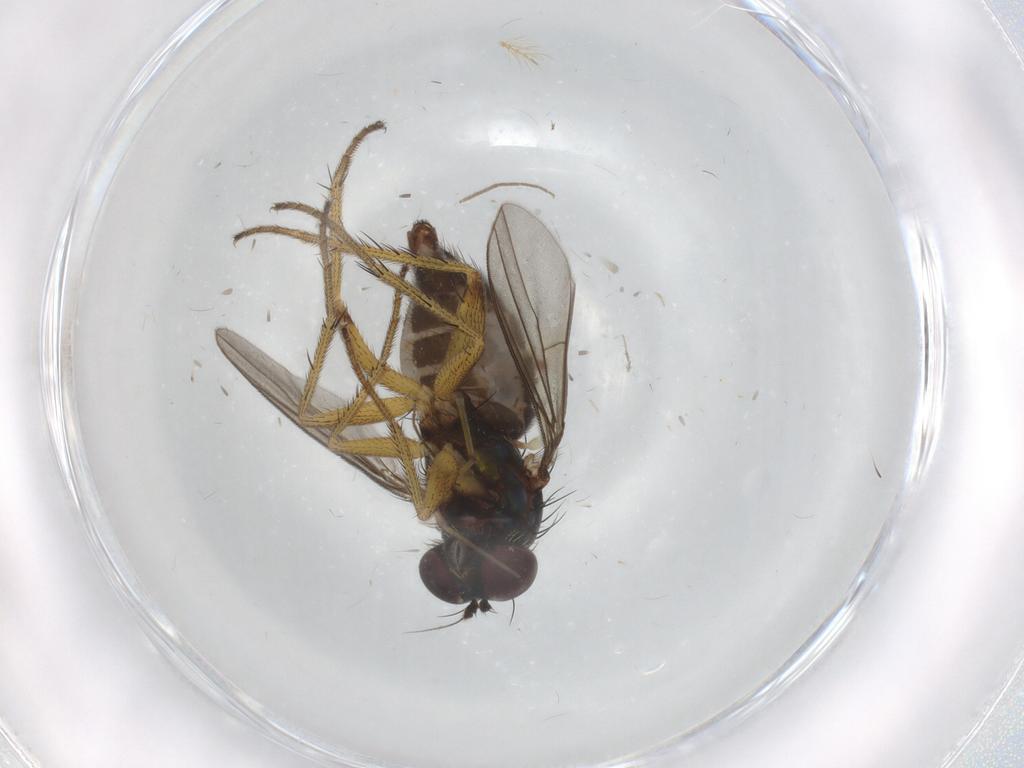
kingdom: Animalia
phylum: Arthropoda
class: Insecta
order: Diptera
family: Dolichopodidae
